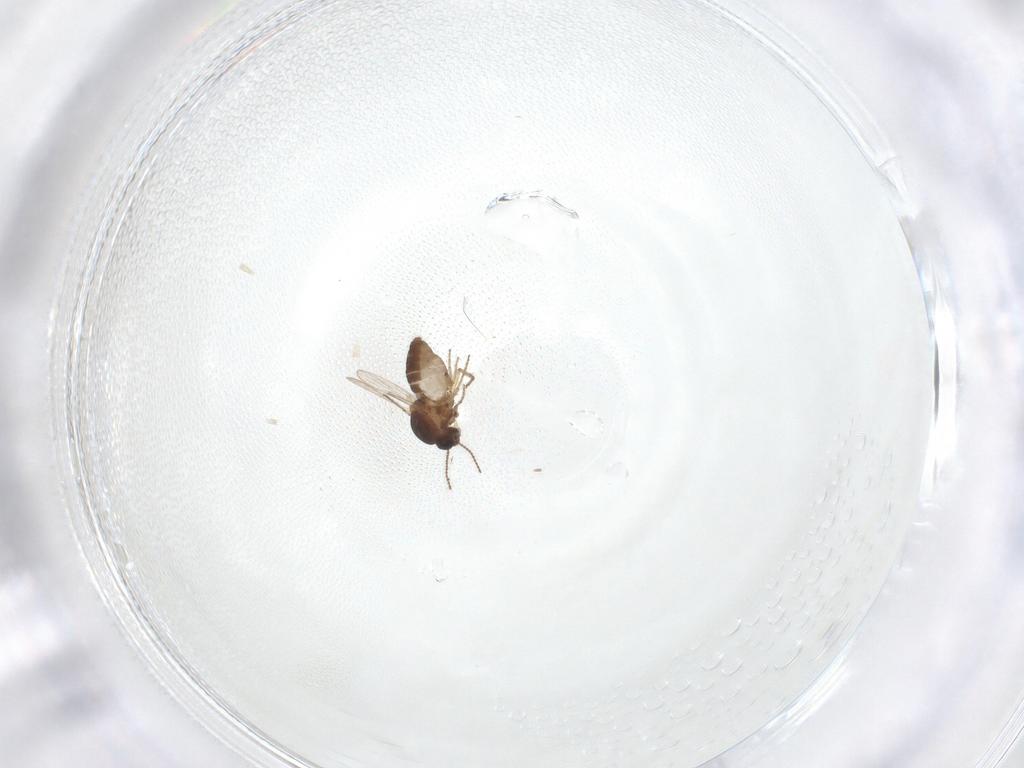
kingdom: Animalia
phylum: Arthropoda
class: Insecta
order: Diptera
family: Ceratopogonidae
